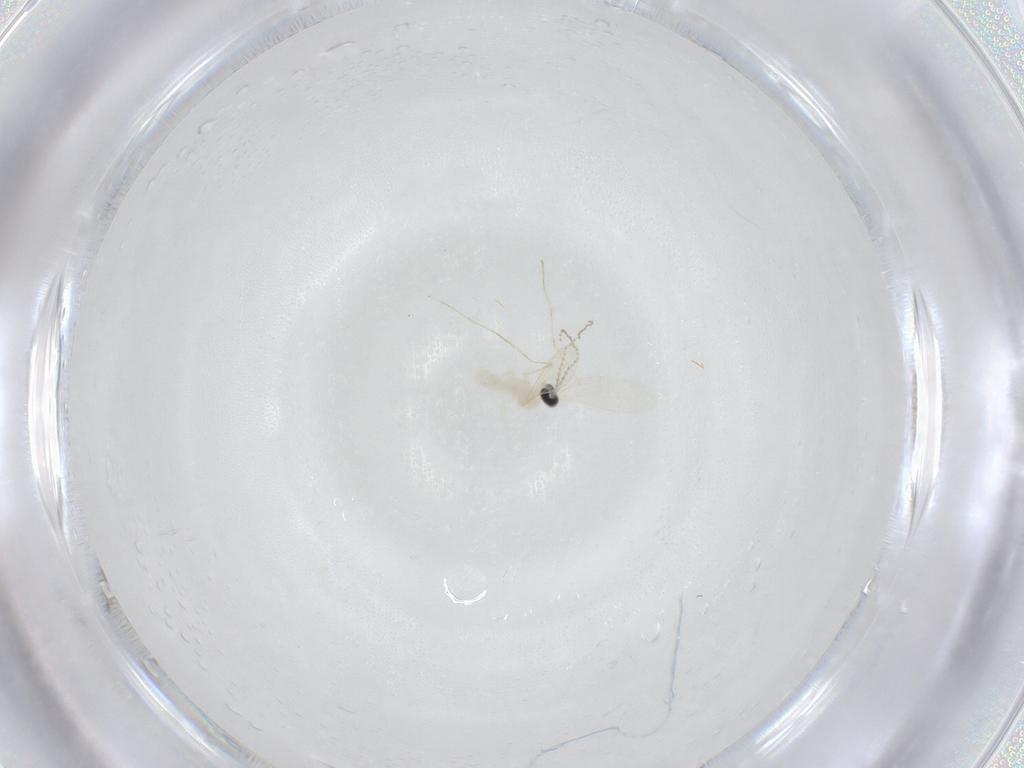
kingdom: Animalia
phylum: Arthropoda
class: Insecta
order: Diptera
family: Cecidomyiidae
